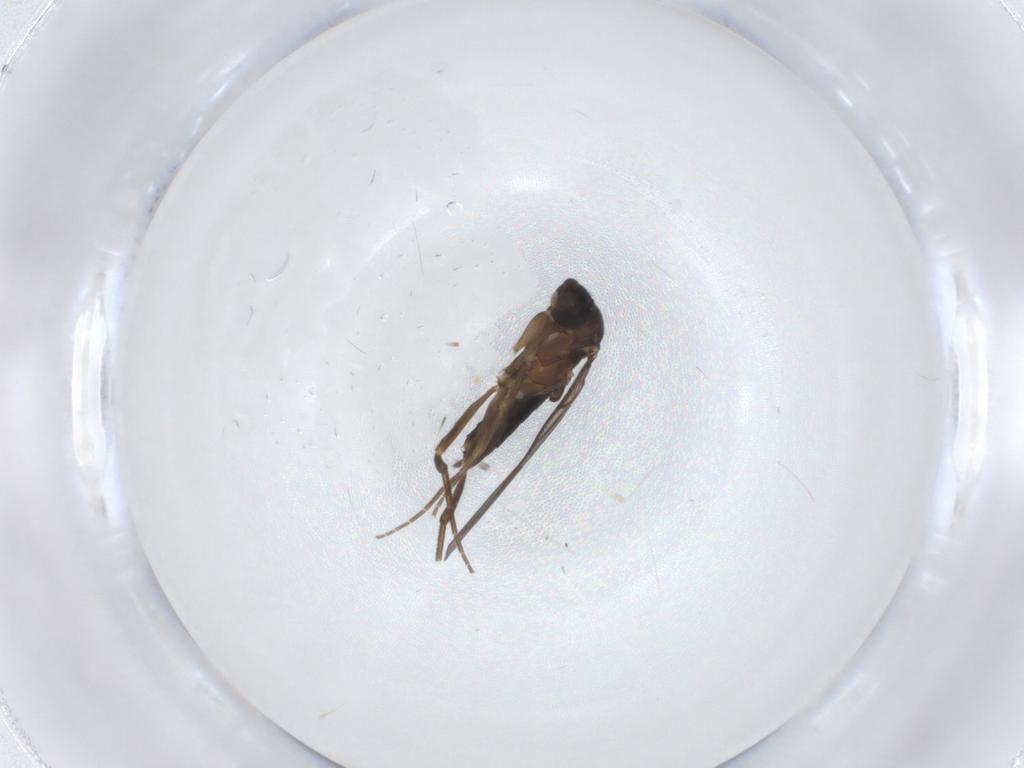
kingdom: Animalia
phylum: Arthropoda
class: Insecta
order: Diptera
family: Chironomidae
